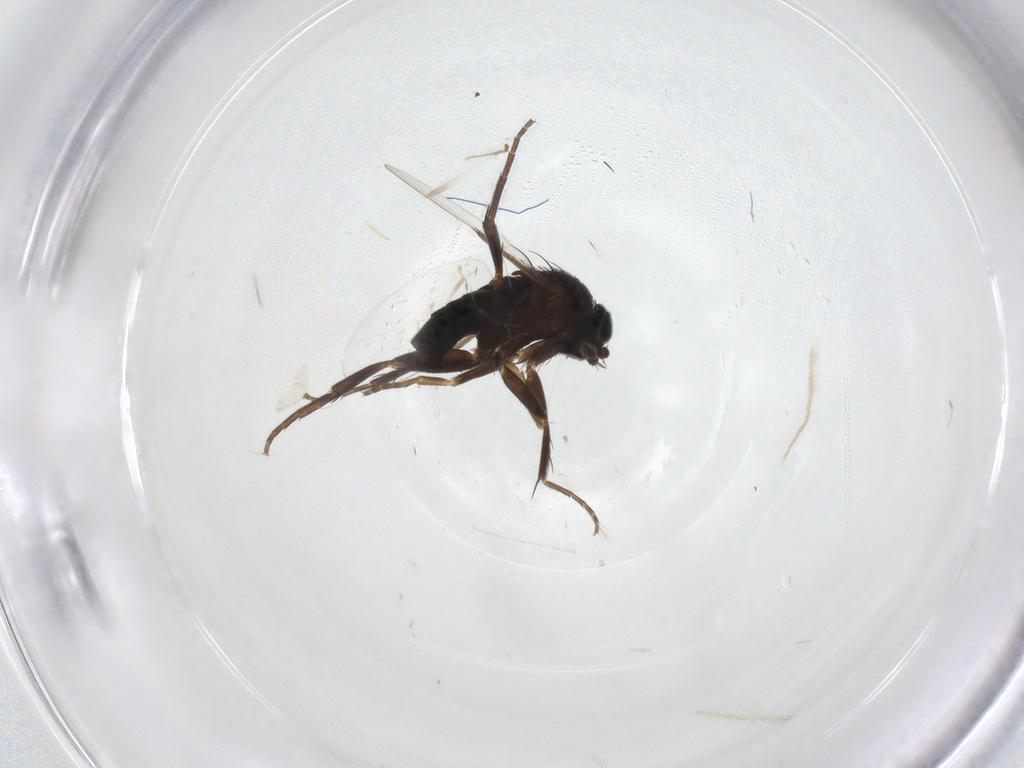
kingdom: Animalia
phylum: Arthropoda
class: Insecta
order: Diptera
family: Phoridae
